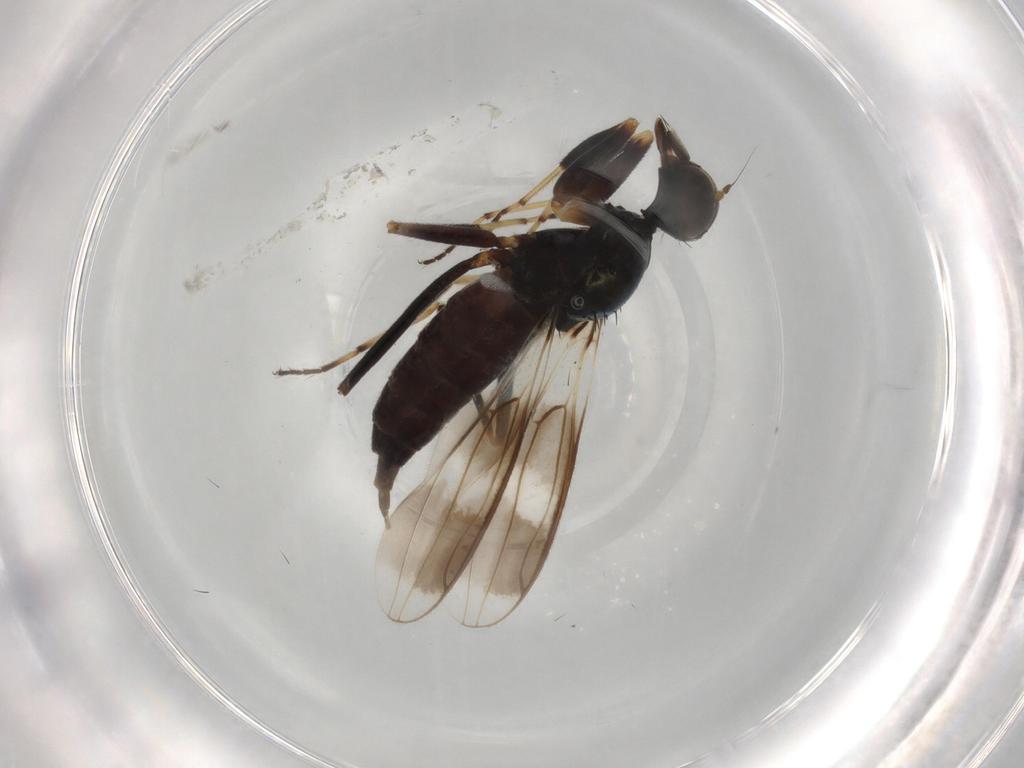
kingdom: Animalia
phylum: Arthropoda
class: Insecta
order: Diptera
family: Hybotidae
